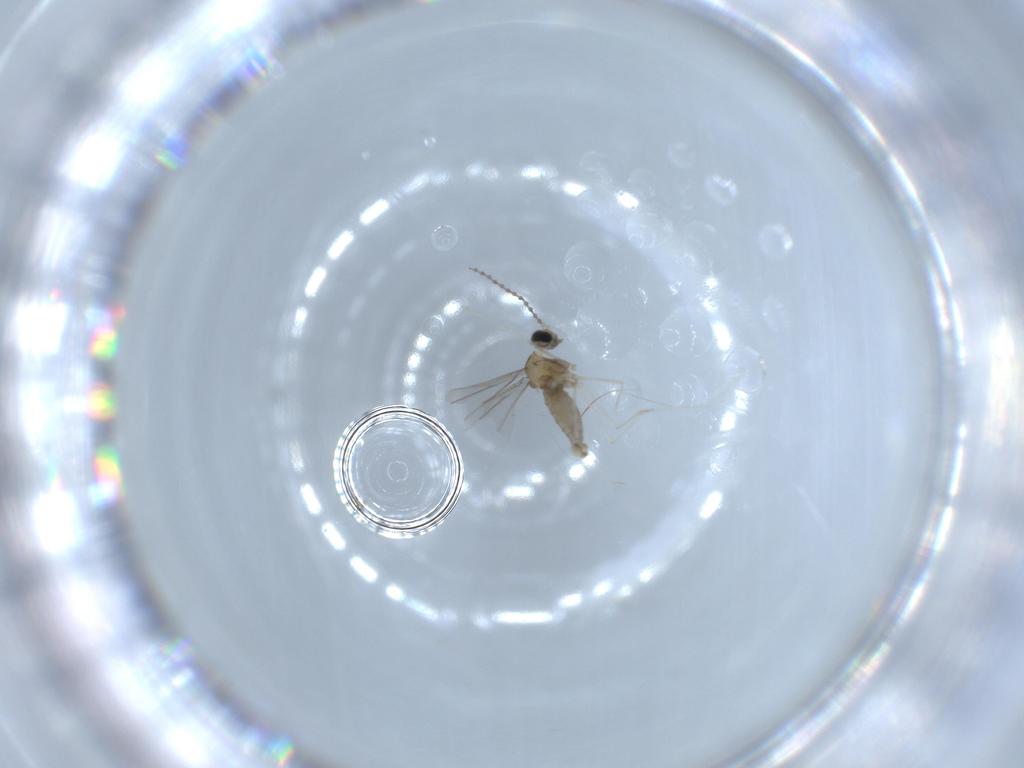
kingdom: Animalia
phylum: Arthropoda
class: Insecta
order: Diptera
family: Cecidomyiidae
